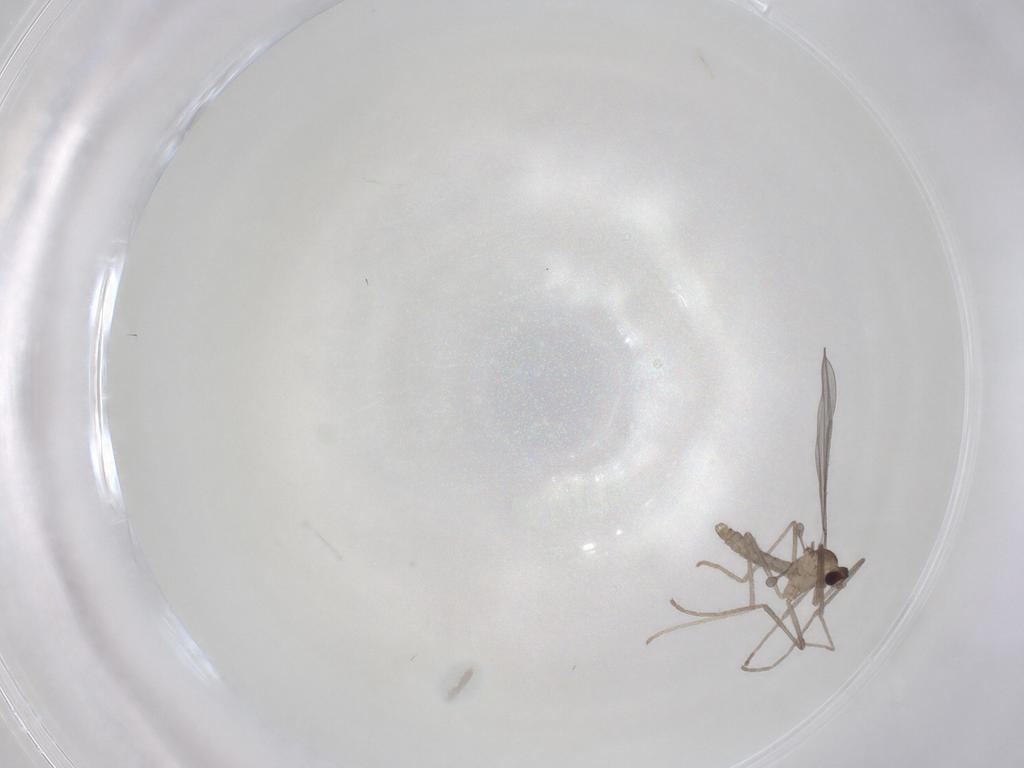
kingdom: Animalia
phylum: Arthropoda
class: Insecta
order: Diptera
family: Cecidomyiidae
